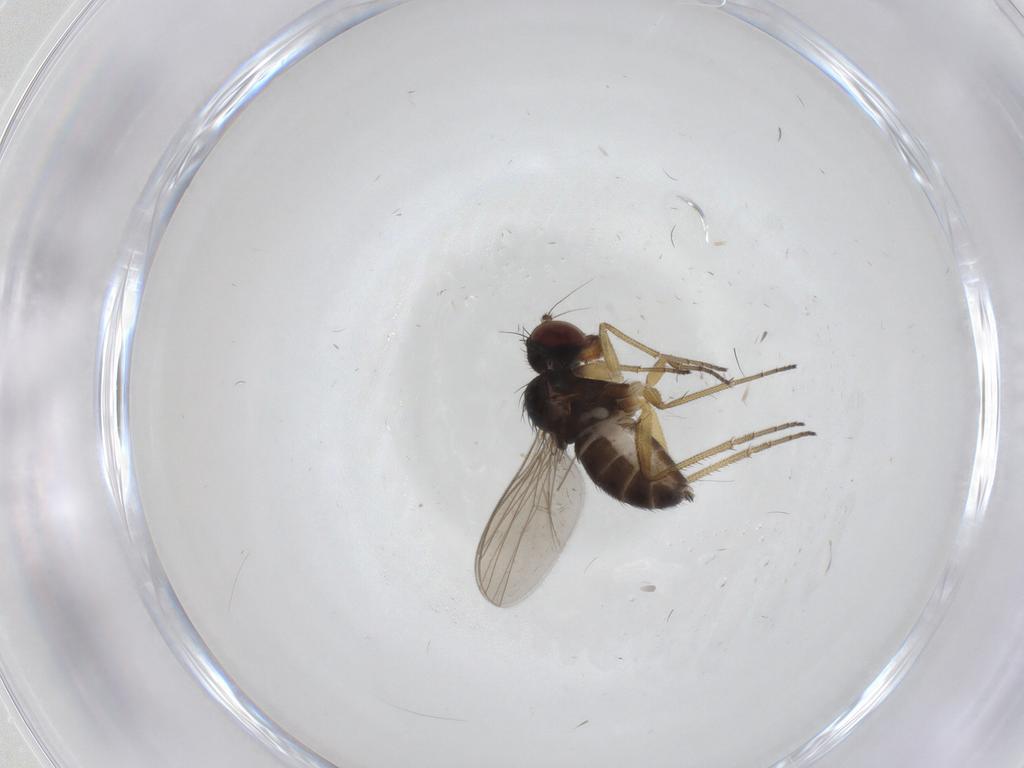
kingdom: Animalia
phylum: Arthropoda
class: Insecta
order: Diptera
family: Dolichopodidae
